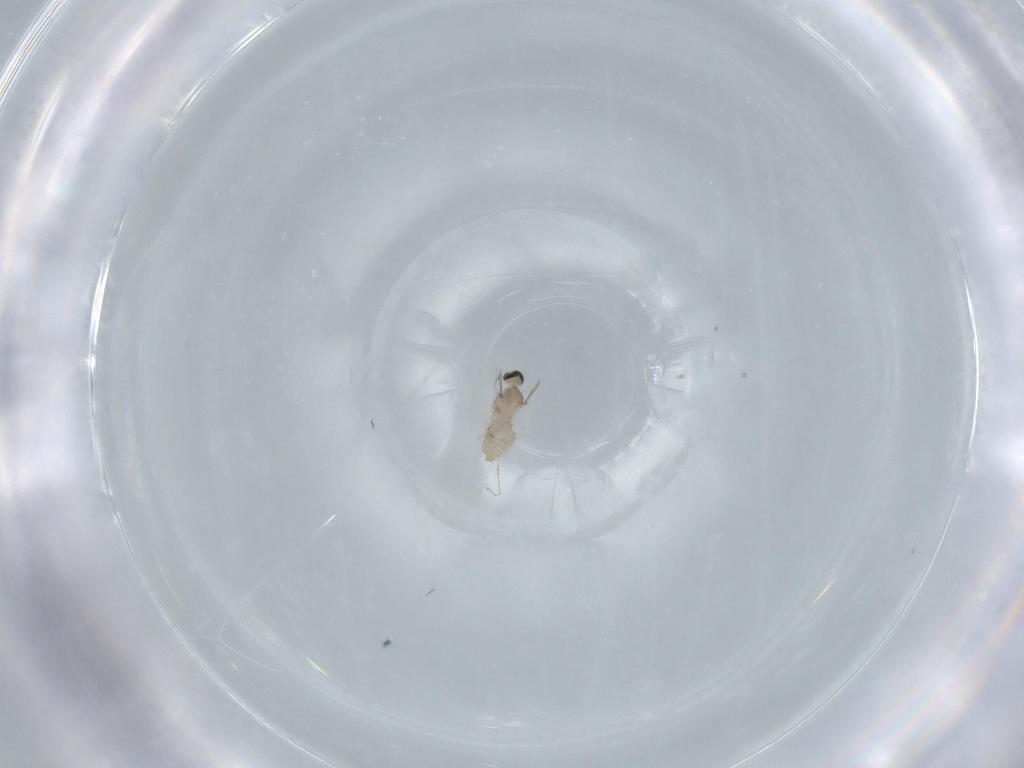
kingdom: Animalia
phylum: Arthropoda
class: Insecta
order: Diptera
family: Cecidomyiidae
